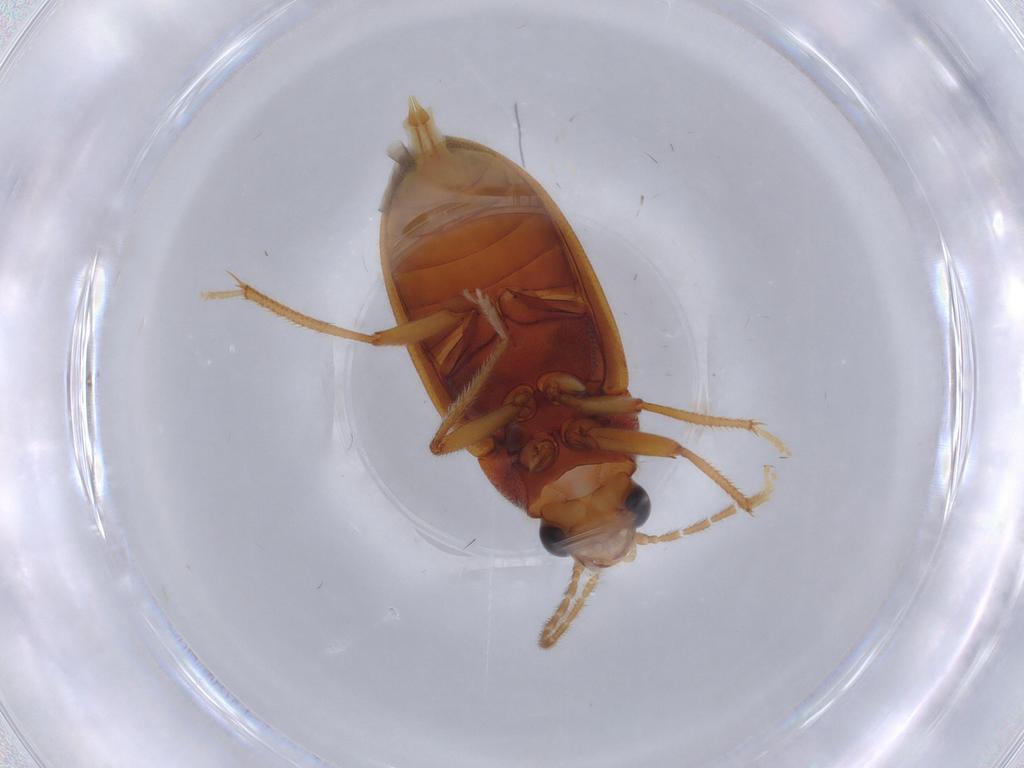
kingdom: Animalia
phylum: Arthropoda
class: Insecta
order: Coleoptera
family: Ptilodactylidae
